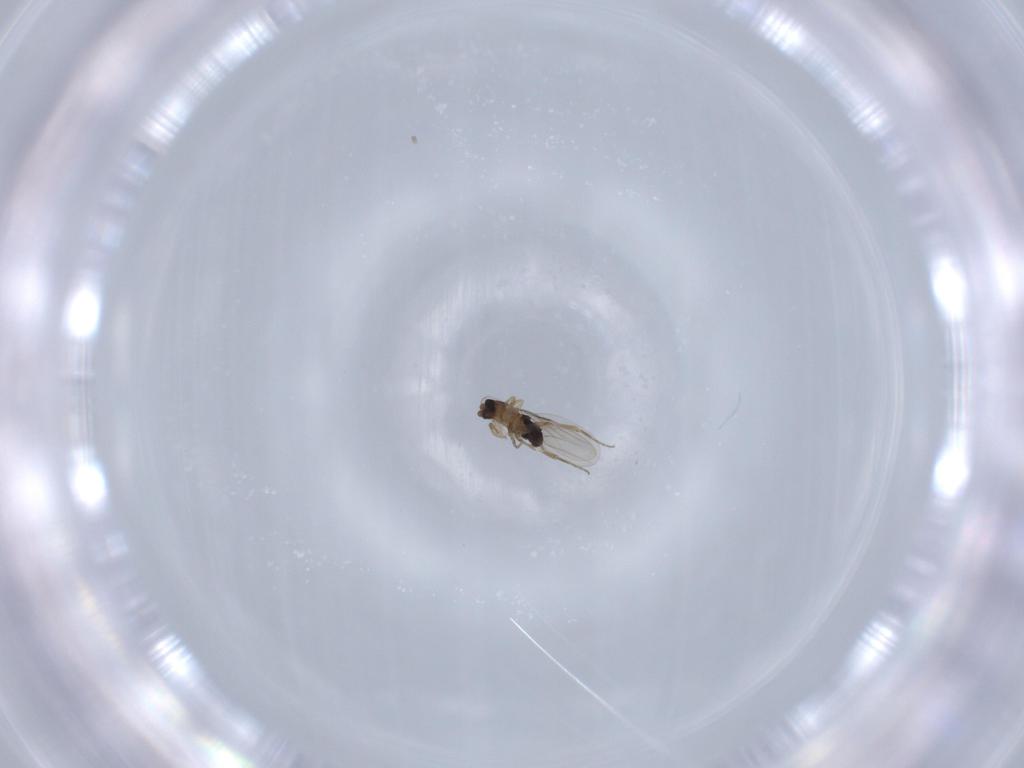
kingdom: Animalia
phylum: Arthropoda
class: Insecta
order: Diptera
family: Phoridae
